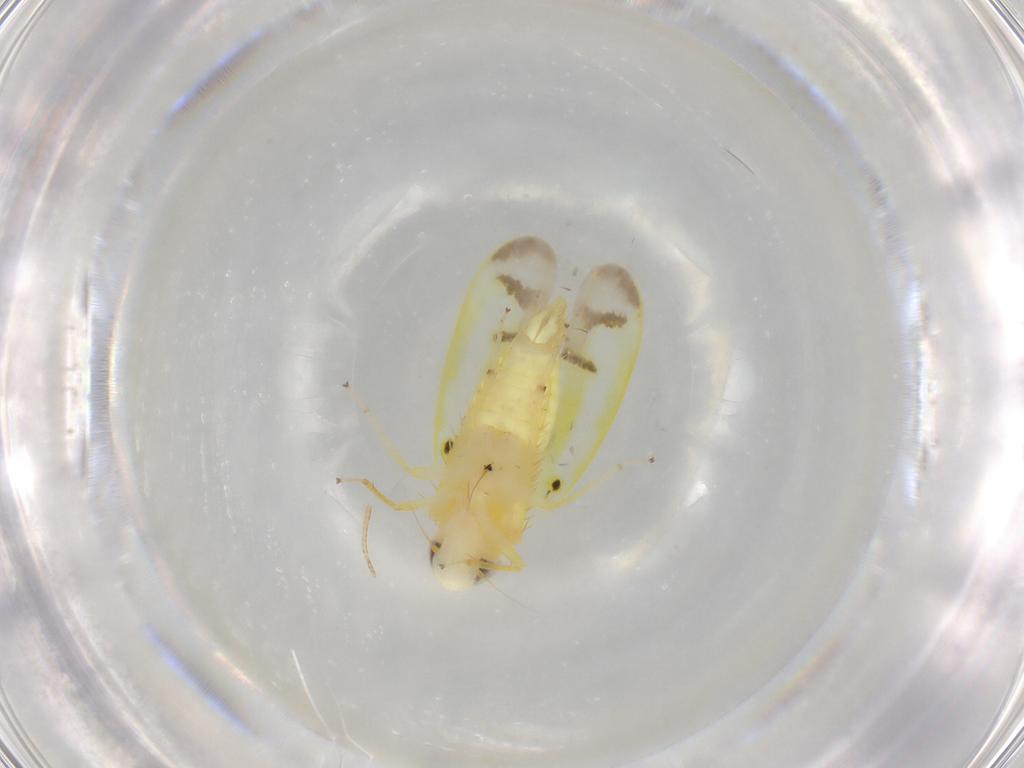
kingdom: Animalia
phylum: Arthropoda
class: Insecta
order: Hemiptera
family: Cicadellidae
